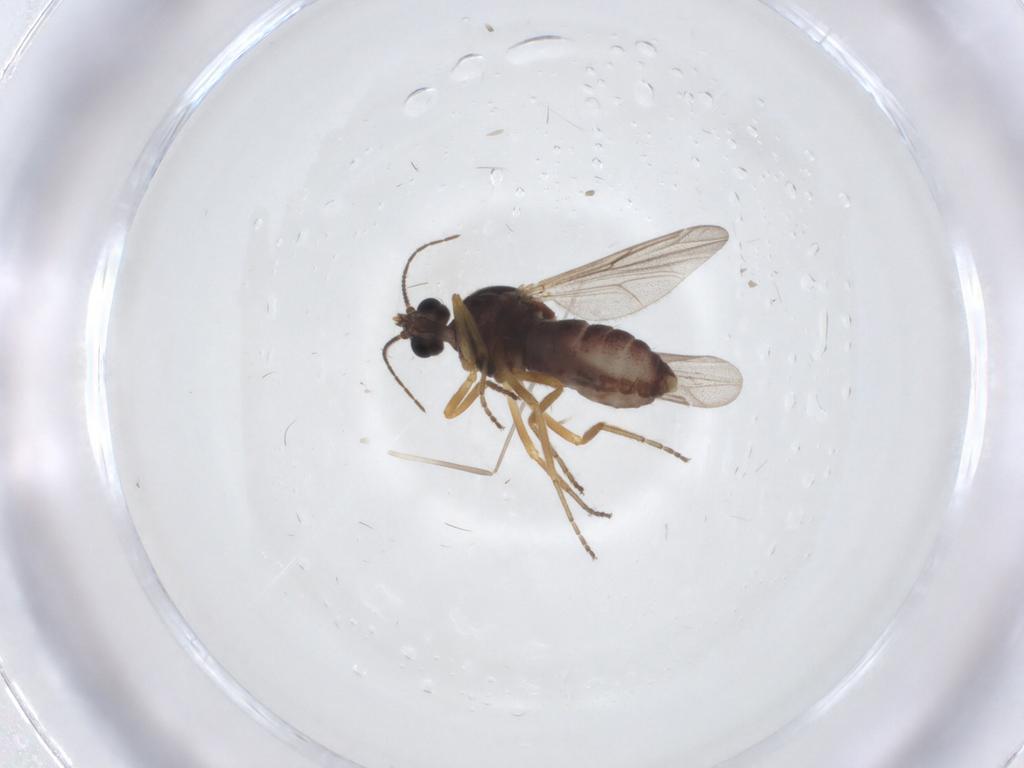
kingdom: Animalia
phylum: Arthropoda
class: Insecta
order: Diptera
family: Ceratopogonidae
